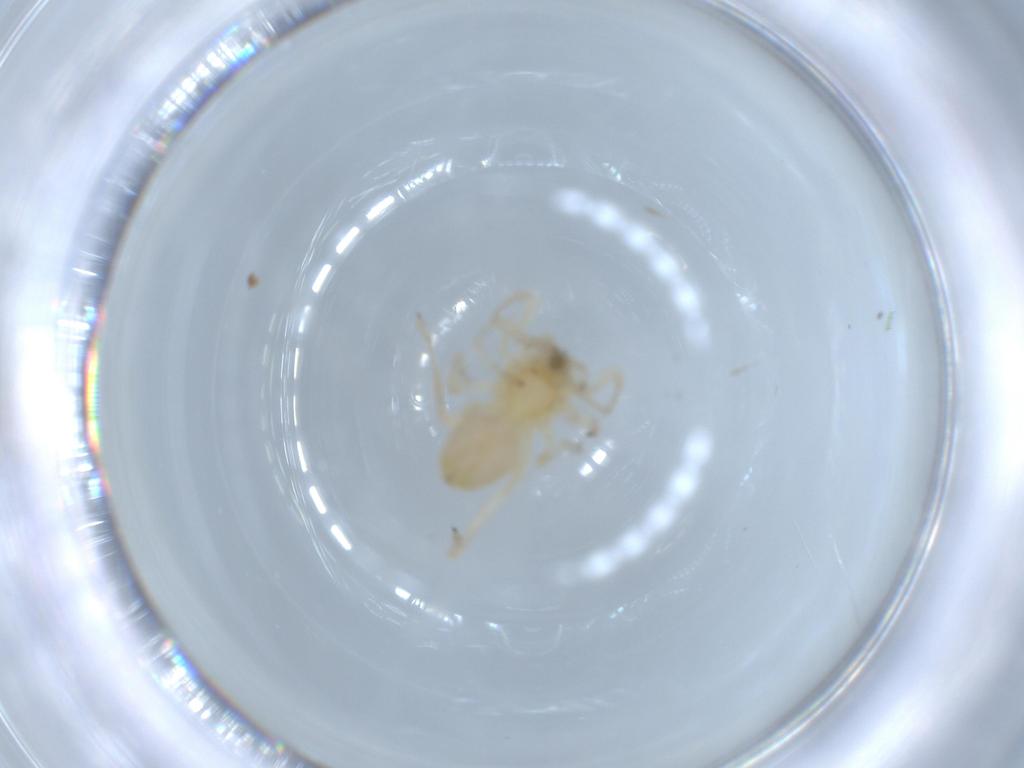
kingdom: Animalia
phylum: Arthropoda
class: Arachnida
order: Araneae
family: Anyphaenidae
